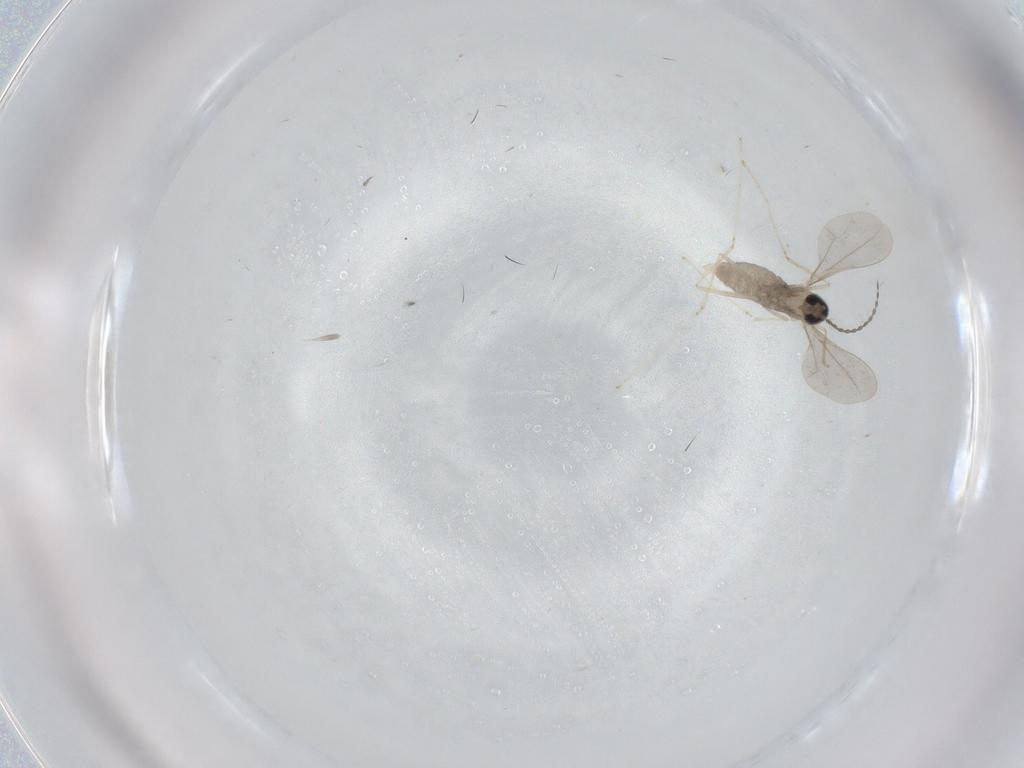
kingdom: Animalia
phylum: Arthropoda
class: Insecta
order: Diptera
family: Cecidomyiidae
